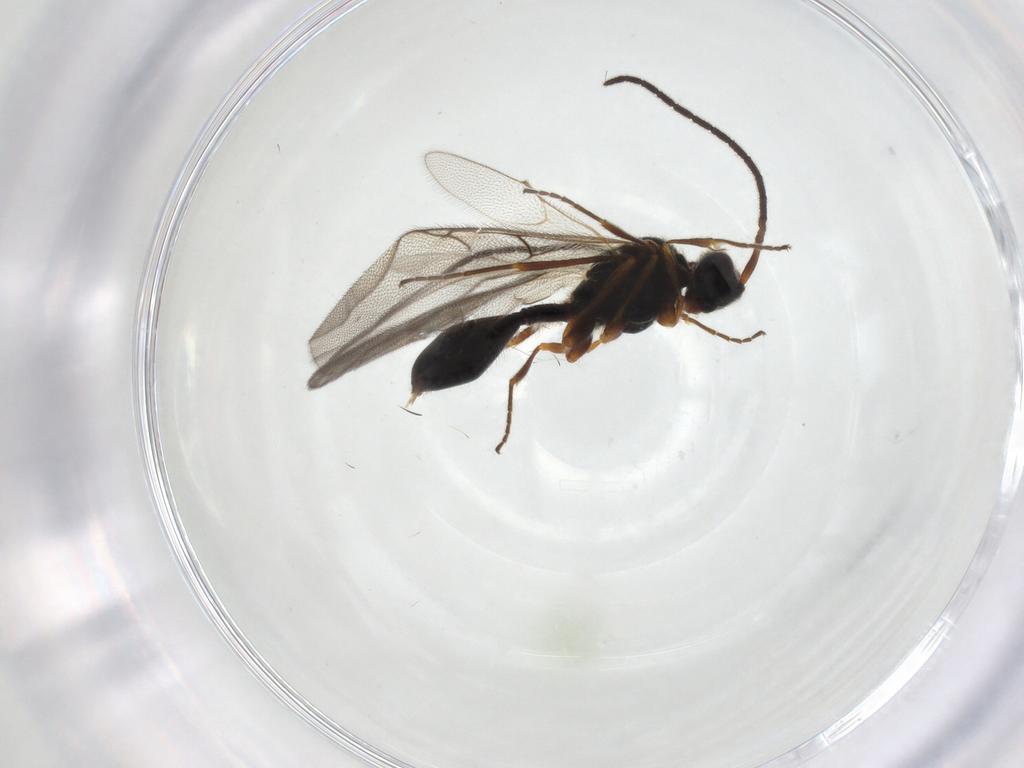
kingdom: Animalia
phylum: Arthropoda
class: Insecta
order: Hymenoptera
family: Diapriidae
